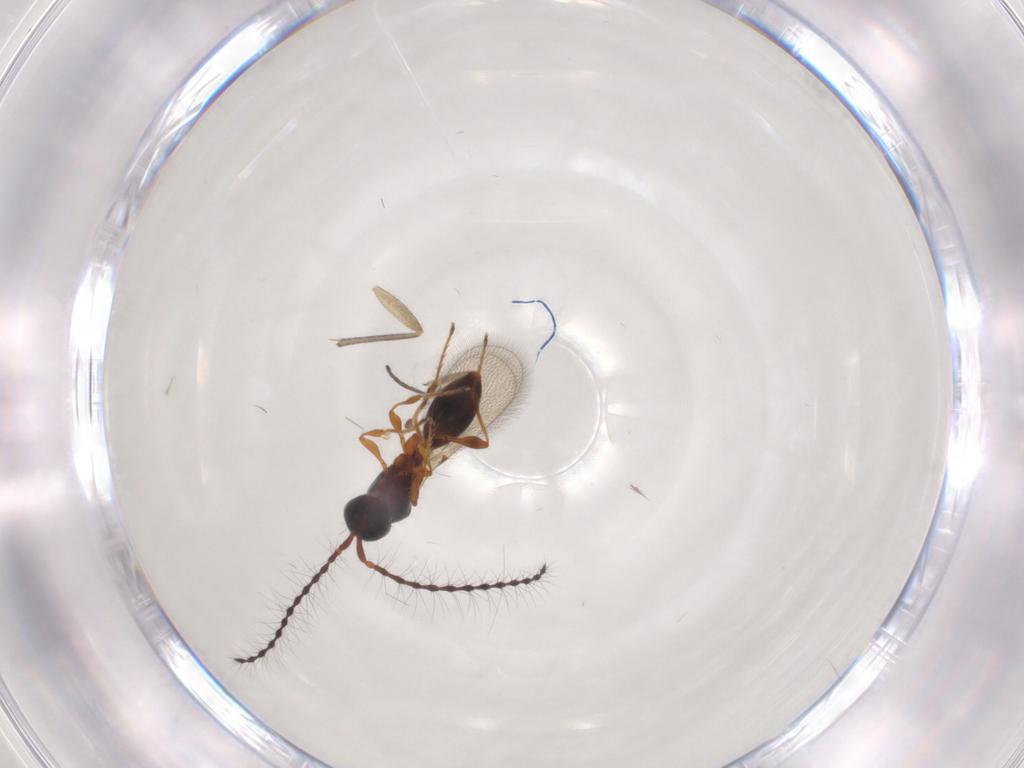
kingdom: Animalia
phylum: Arthropoda
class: Insecta
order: Hymenoptera
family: Diapriidae
